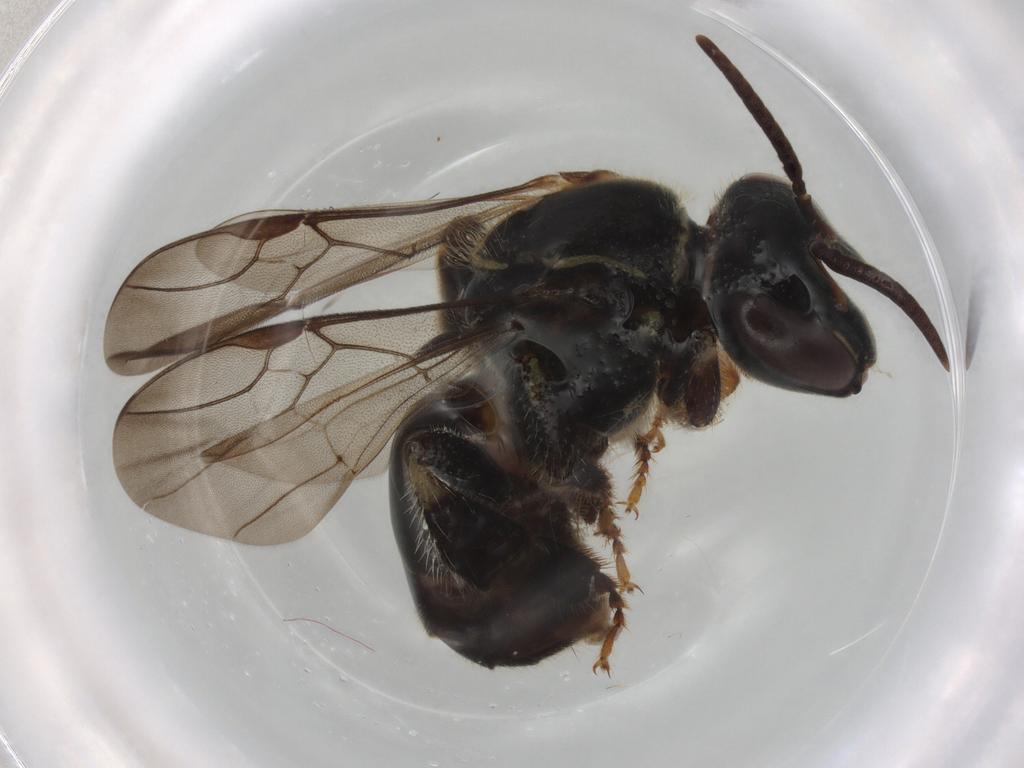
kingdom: Animalia
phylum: Arthropoda
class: Insecta
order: Hymenoptera
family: Apidae
